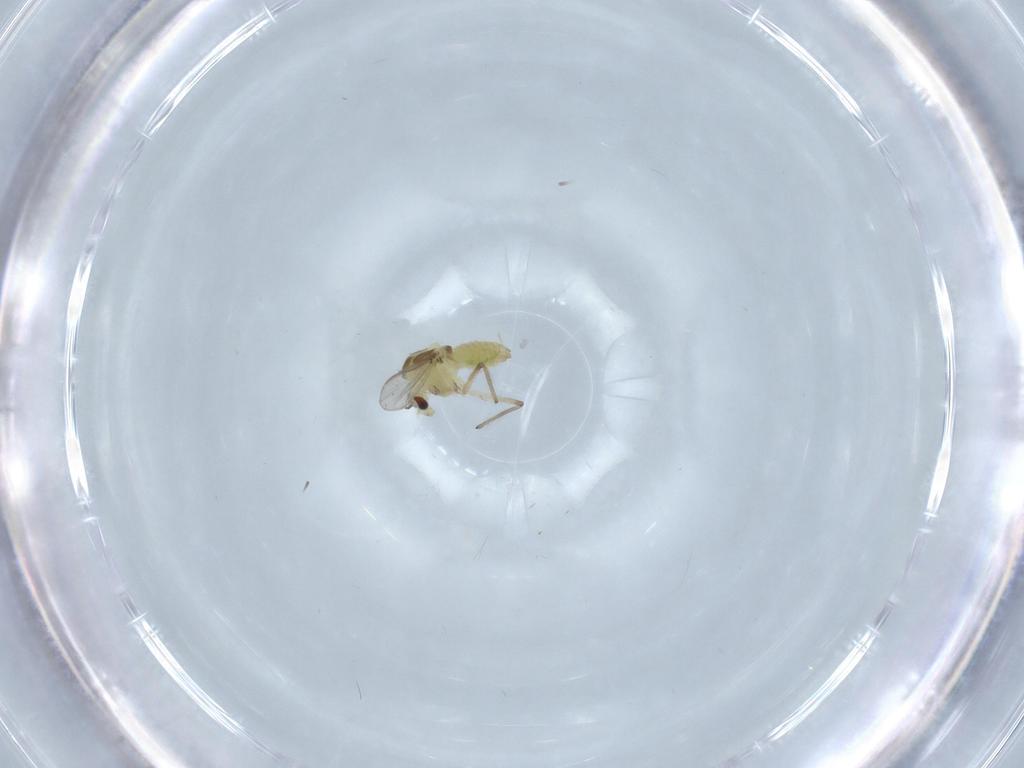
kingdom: Animalia
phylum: Arthropoda
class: Insecta
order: Diptera
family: Chironomidae
